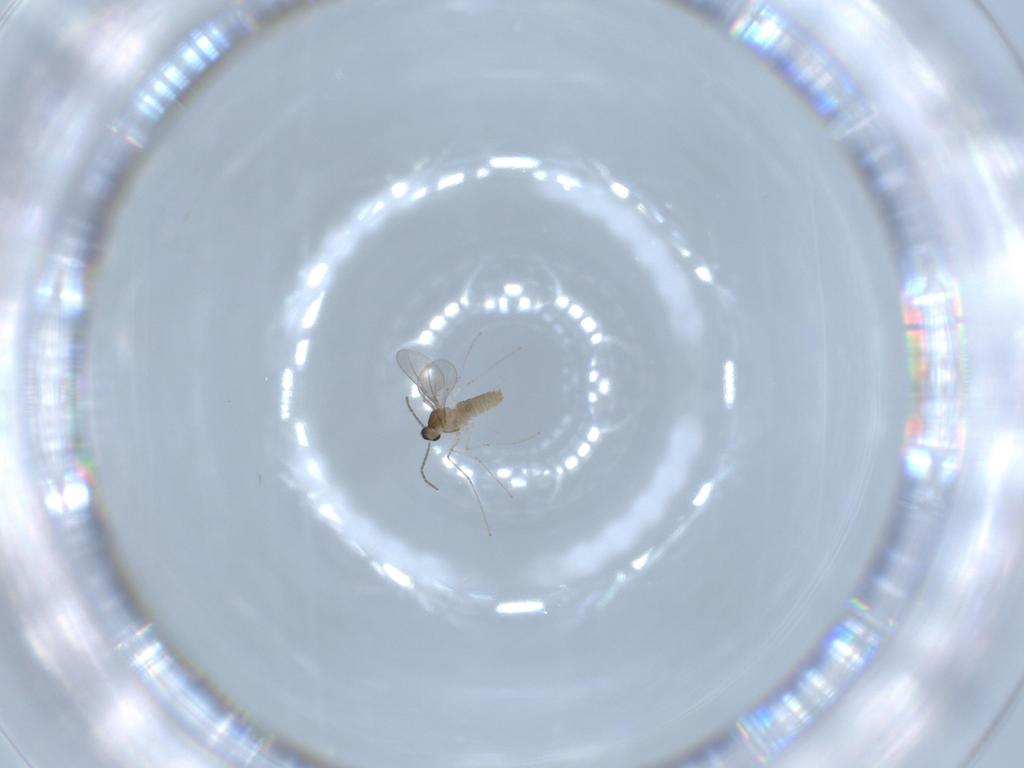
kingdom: Animalia
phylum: Arthropoda
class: Insecta
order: Diptera
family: Chironomidae
